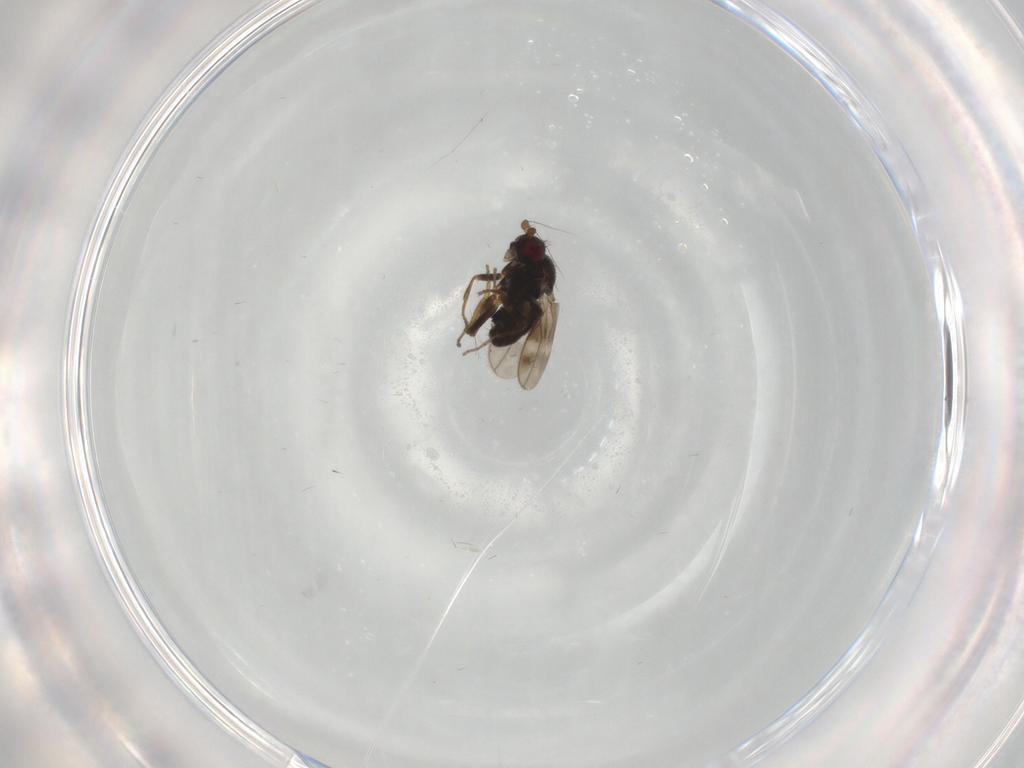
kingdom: Animalia
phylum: Arthropoda
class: Insecta
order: Diptera
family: Sphaeroceridae
